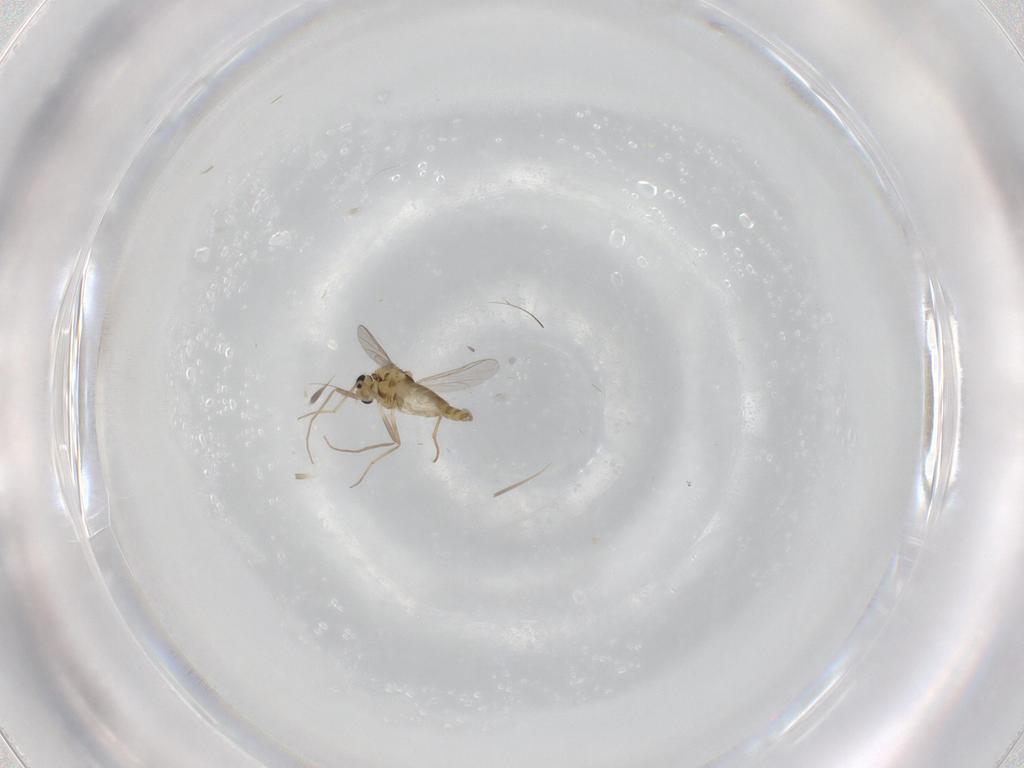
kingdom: Animalia
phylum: Arthropoda
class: Insecta
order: Diptera
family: Chironomidae
